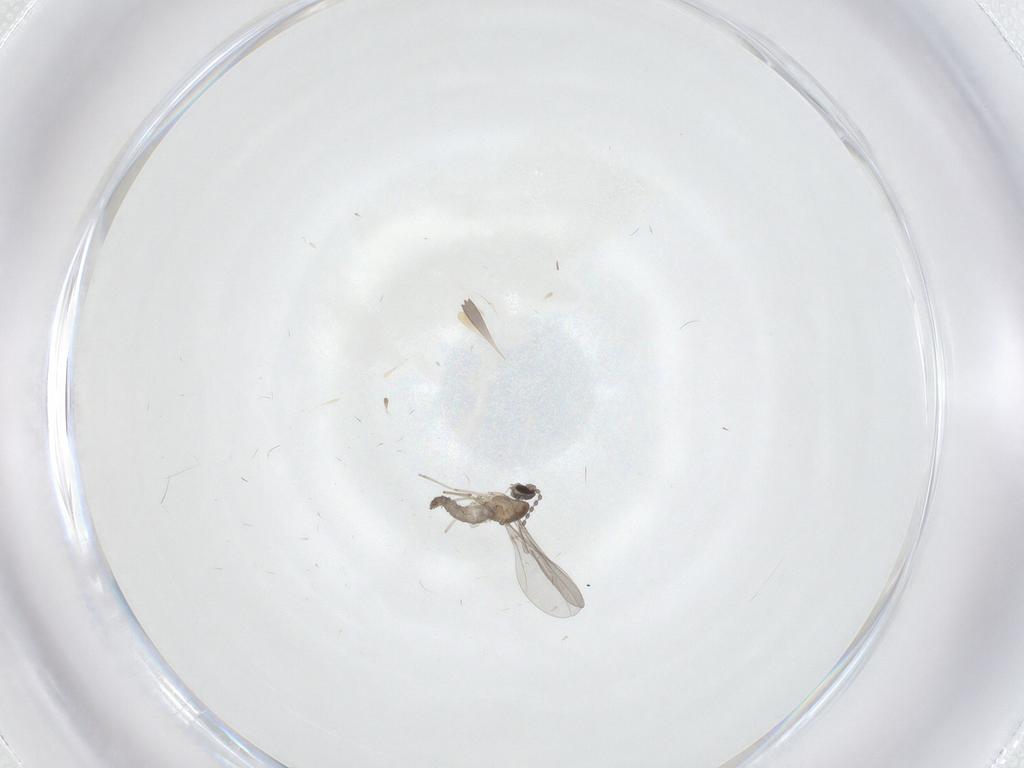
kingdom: Animalia
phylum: Arthropoda
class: Insecta
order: Diptera
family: Cecidomyiidae
